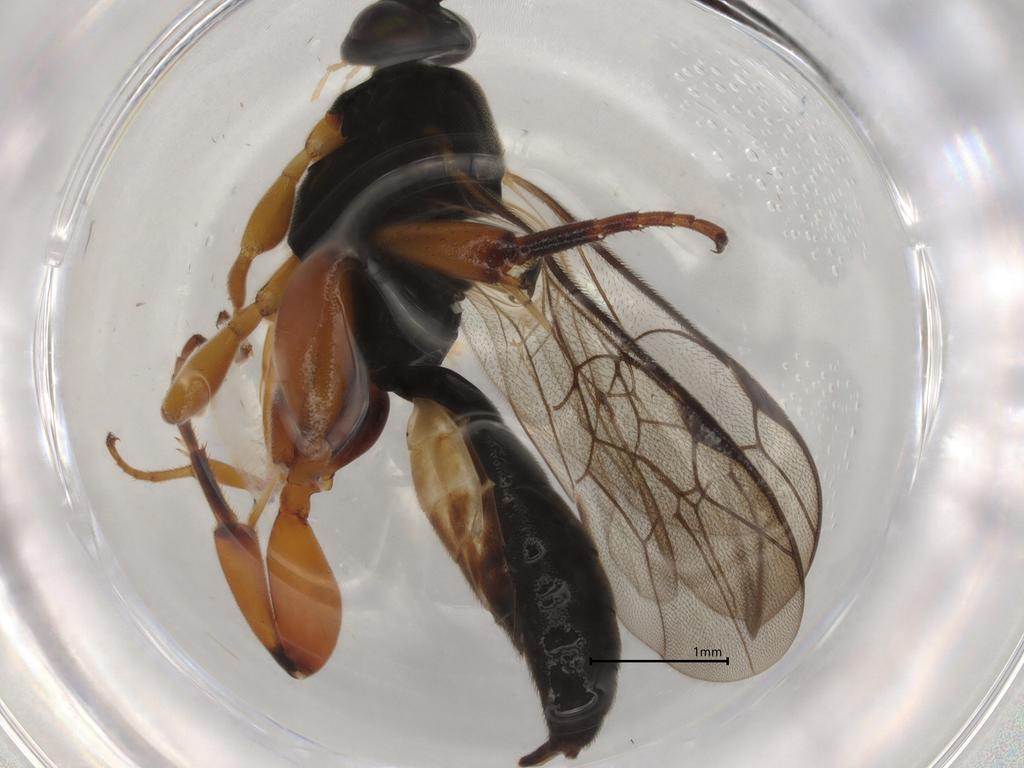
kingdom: Animalia
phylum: Arthropoda
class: Insecta
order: Hymenoptera
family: Ichneumonidae
